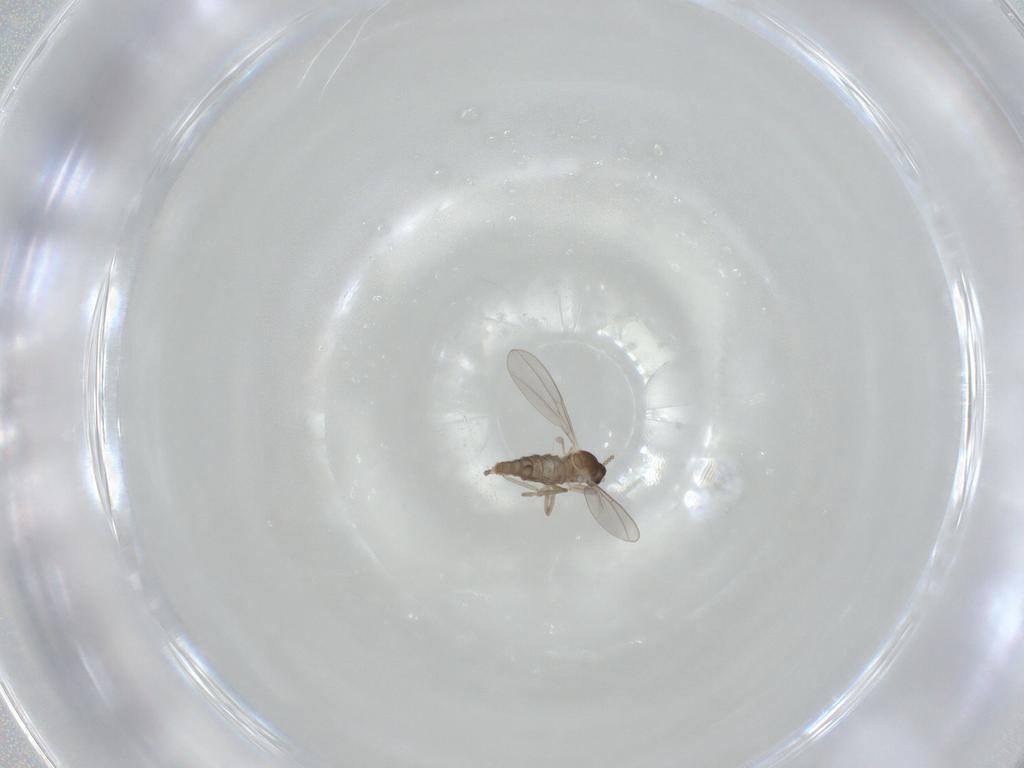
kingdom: Animalia
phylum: Arthropoda
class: Insecta
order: Diptera
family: Cecidomyiidae
